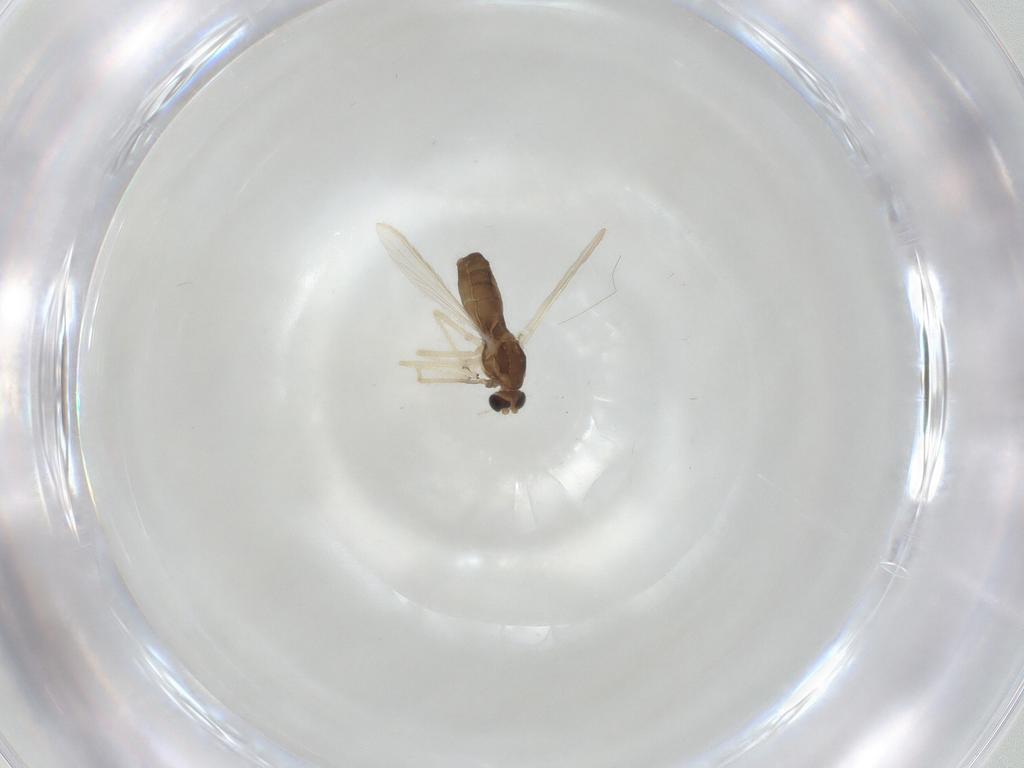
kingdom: Animalia
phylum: Arthropoda
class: Insecta
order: Diptera
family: Chironomidae
